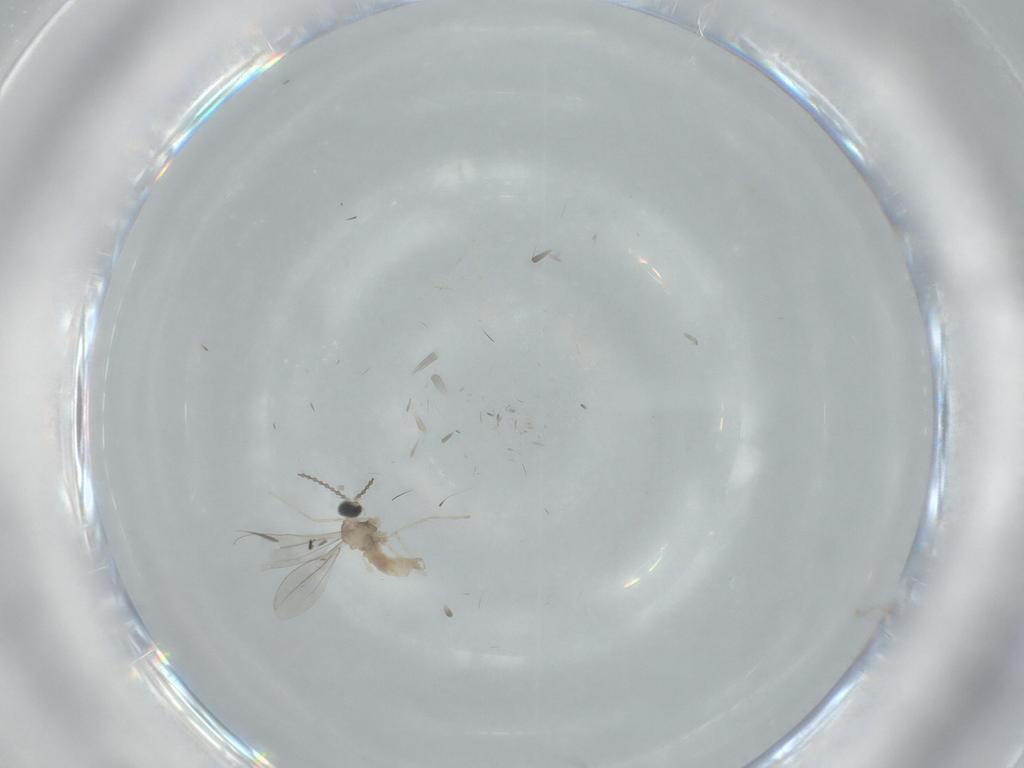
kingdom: Animalia
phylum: Arthropoda
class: Insecta
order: Diptera
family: Cecidomyiidae
